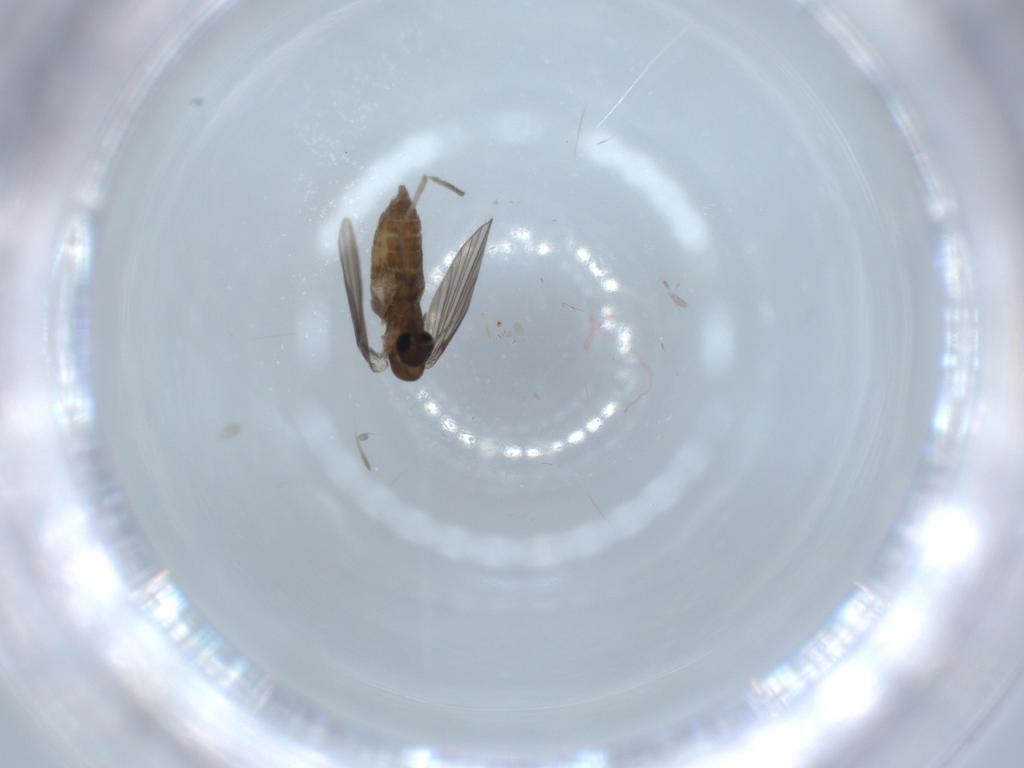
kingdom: Animalia
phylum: Arthropoda
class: Insecta
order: Diptera
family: Psychodidae
